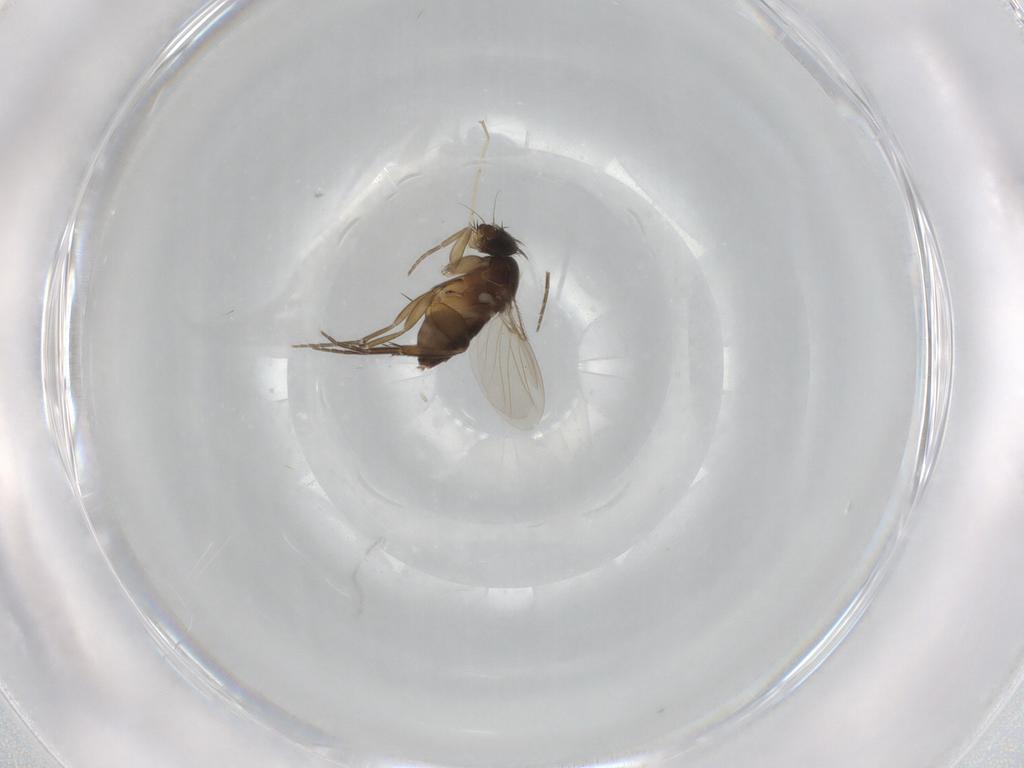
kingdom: Animalia
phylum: Arthropoda
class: Insecta
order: Diptera
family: Phoridae
